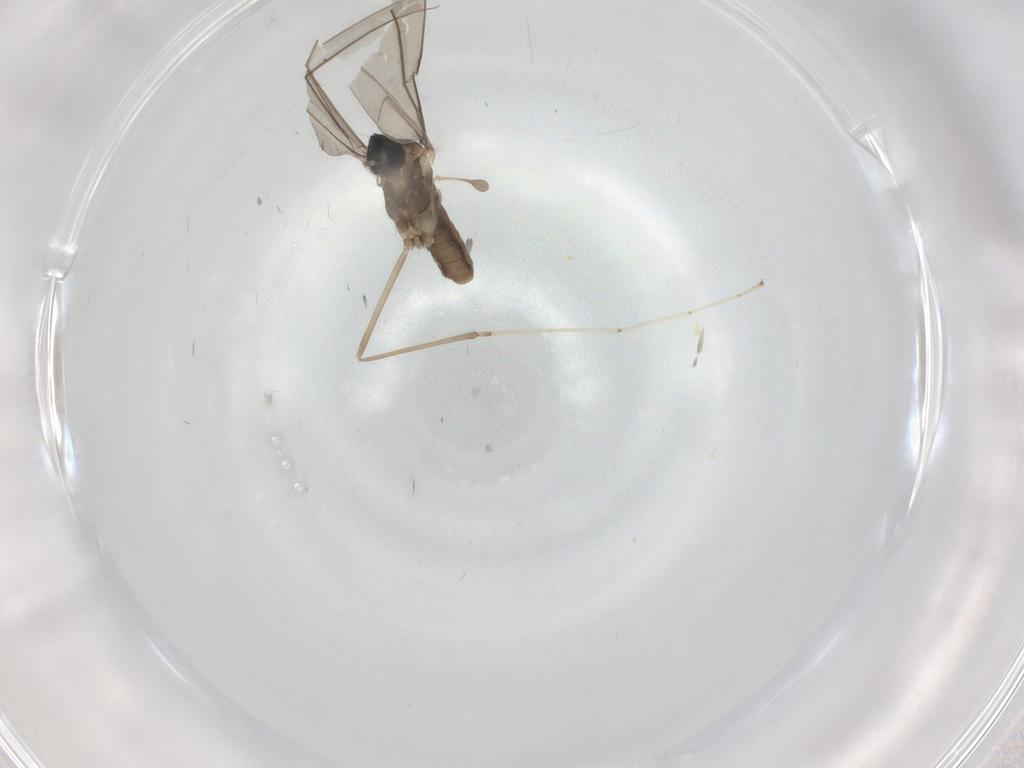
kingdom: Animalia
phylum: Arthropoda
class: Insecta
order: Diptera
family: Cecidomyiidae
